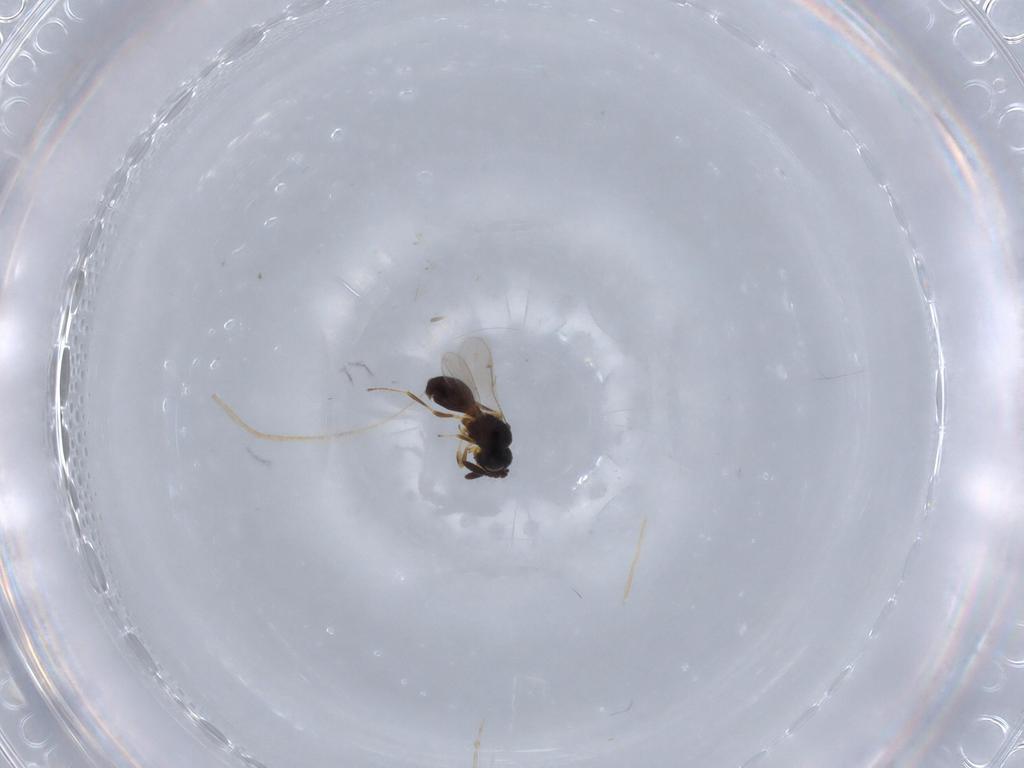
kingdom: Animalia
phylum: Arthropoda
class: Insecta
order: Hymenoptera
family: Scelionidae
